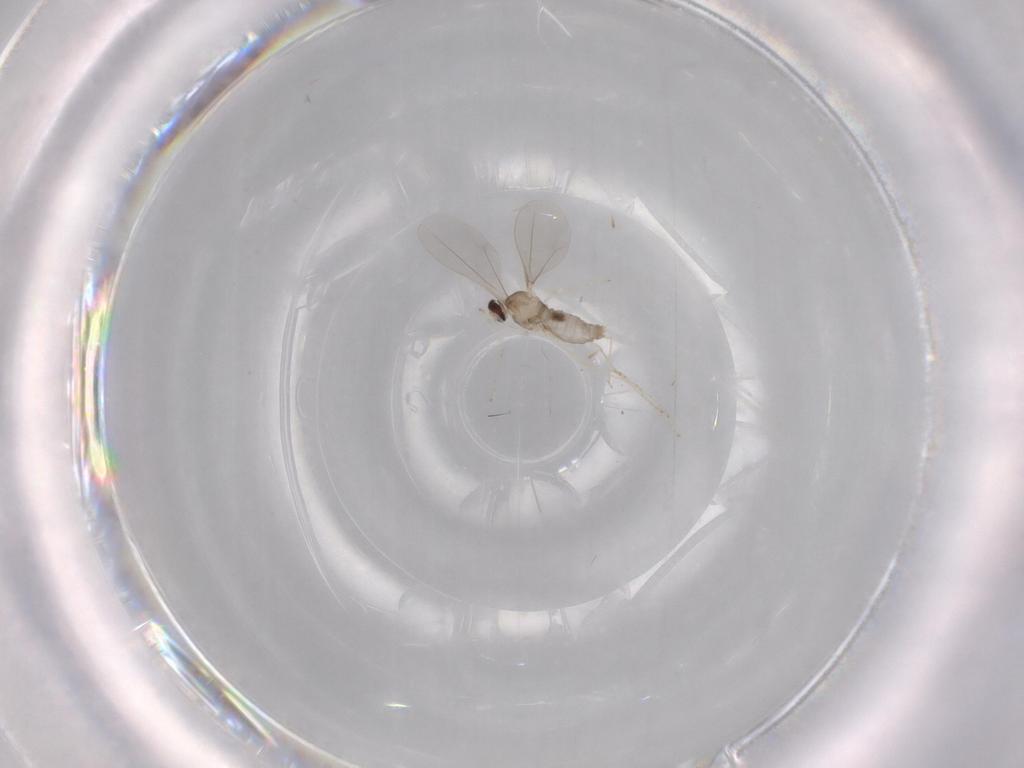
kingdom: Animalia
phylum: Arthropoda
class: Insecta
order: Diptera
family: Cecidomyiidae
